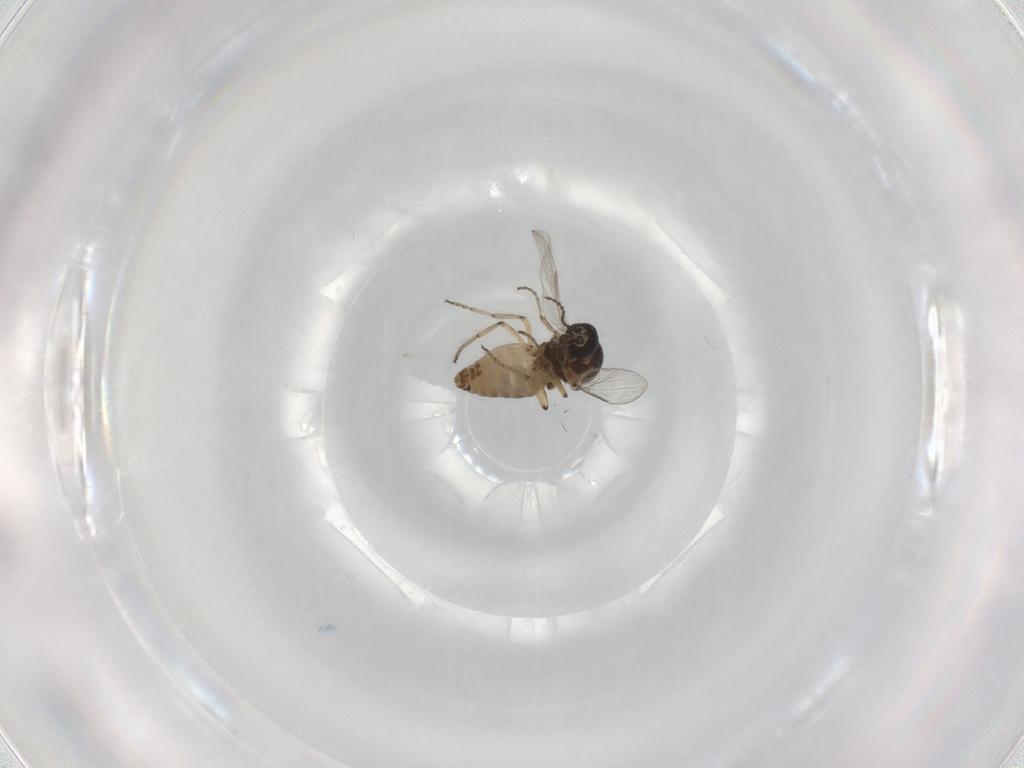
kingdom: Animalia
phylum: Arthropoda
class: Insecta
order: Diptera
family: Ceratopogonidae
